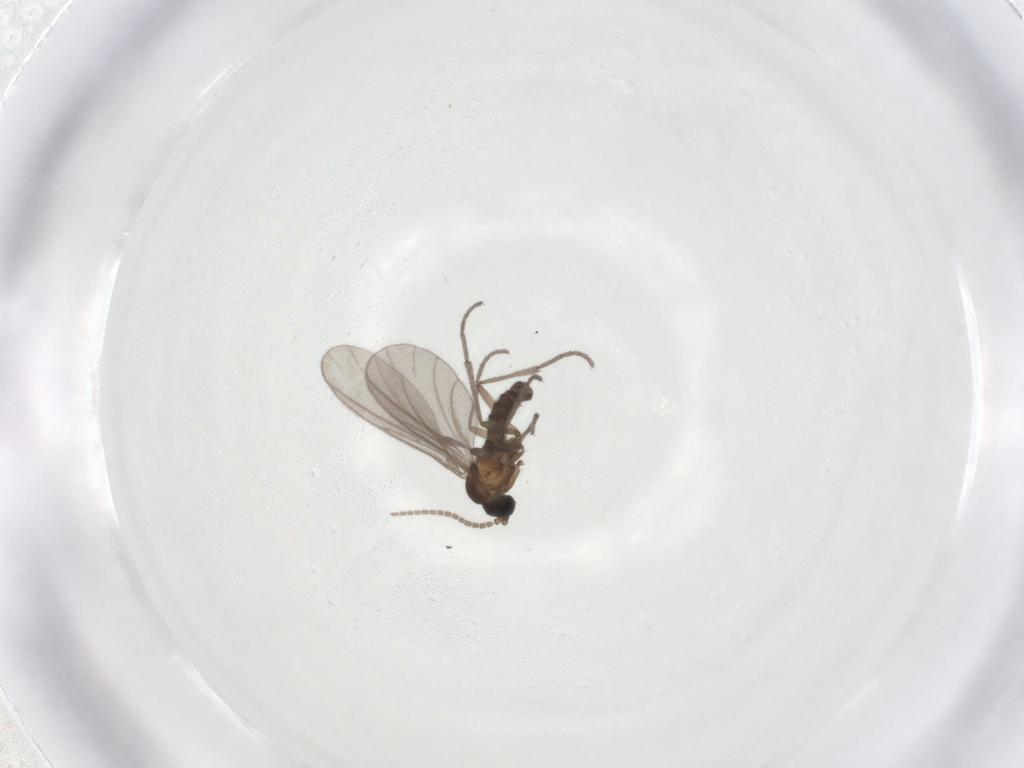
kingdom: Animalia
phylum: Arthropoda
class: Insecta
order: Diptera
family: Sciaridae
